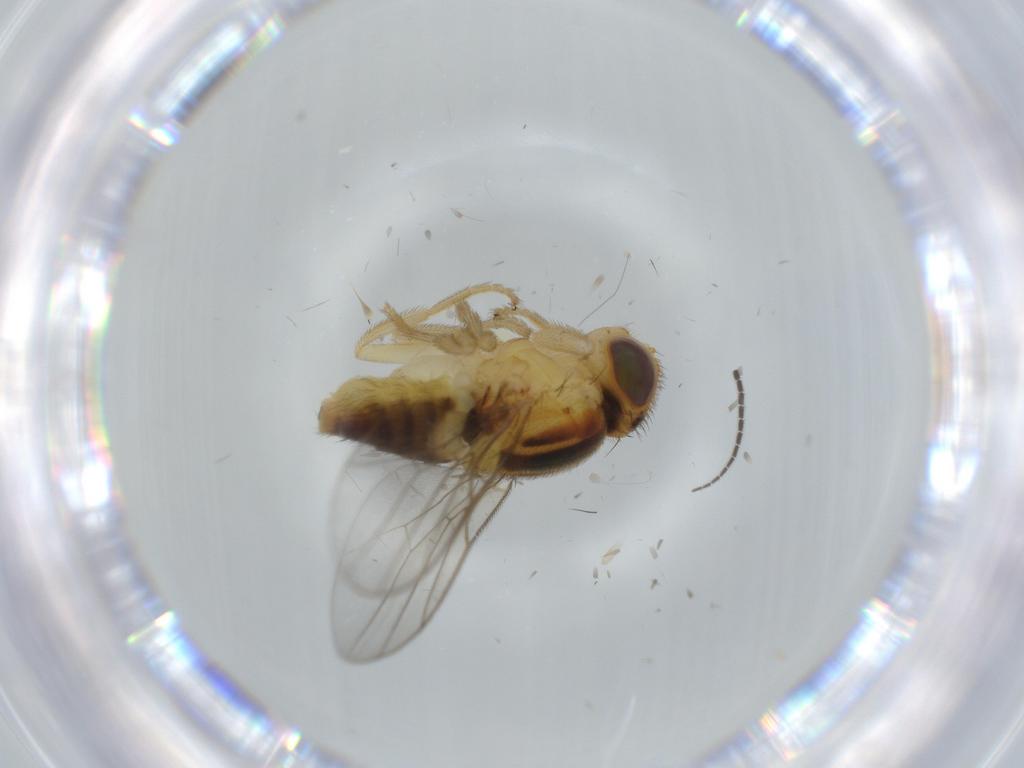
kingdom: Animalia
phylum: Arthropoda
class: Insecta
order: Diptera
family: Chloropidae
